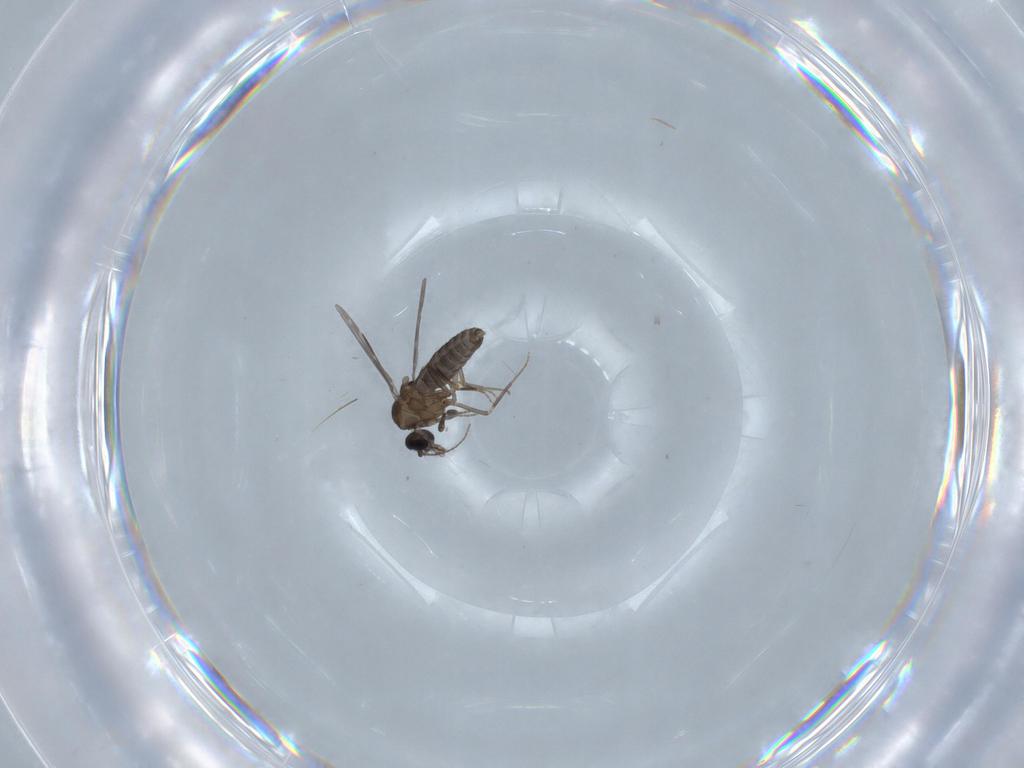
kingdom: Animalia
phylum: Arthropoda
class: Insecta
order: Diptera
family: Ceratopogonidae
